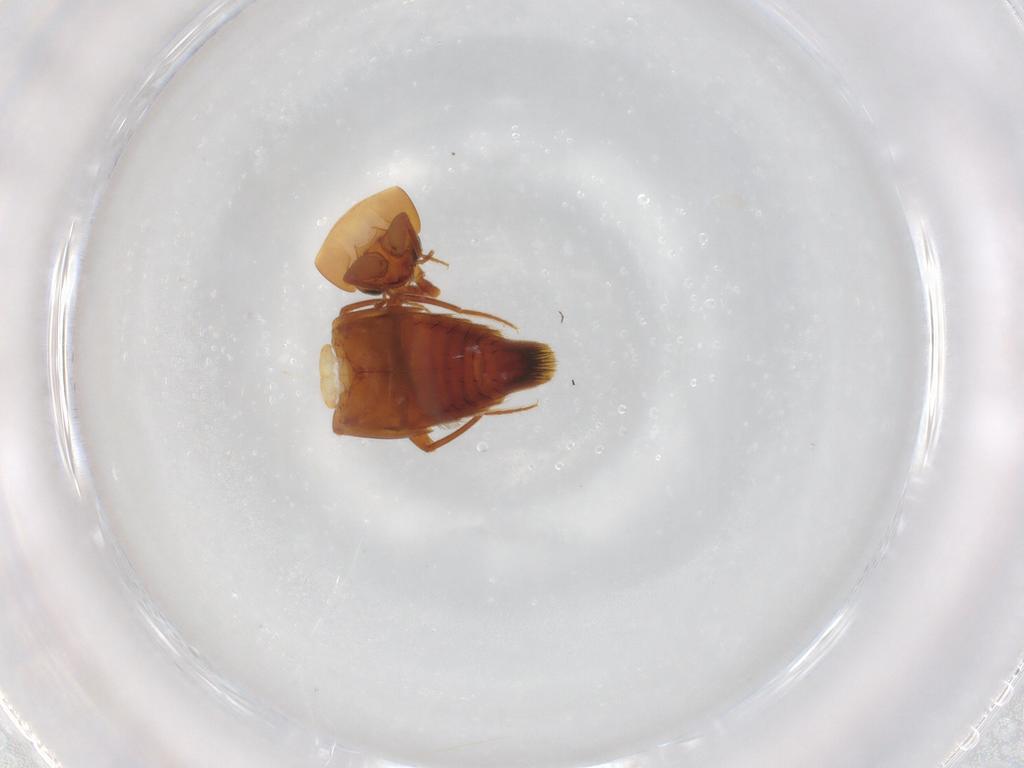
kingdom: Animalia
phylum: Arthropoda
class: Insecta
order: Coleoptera
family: Staphylinidae
